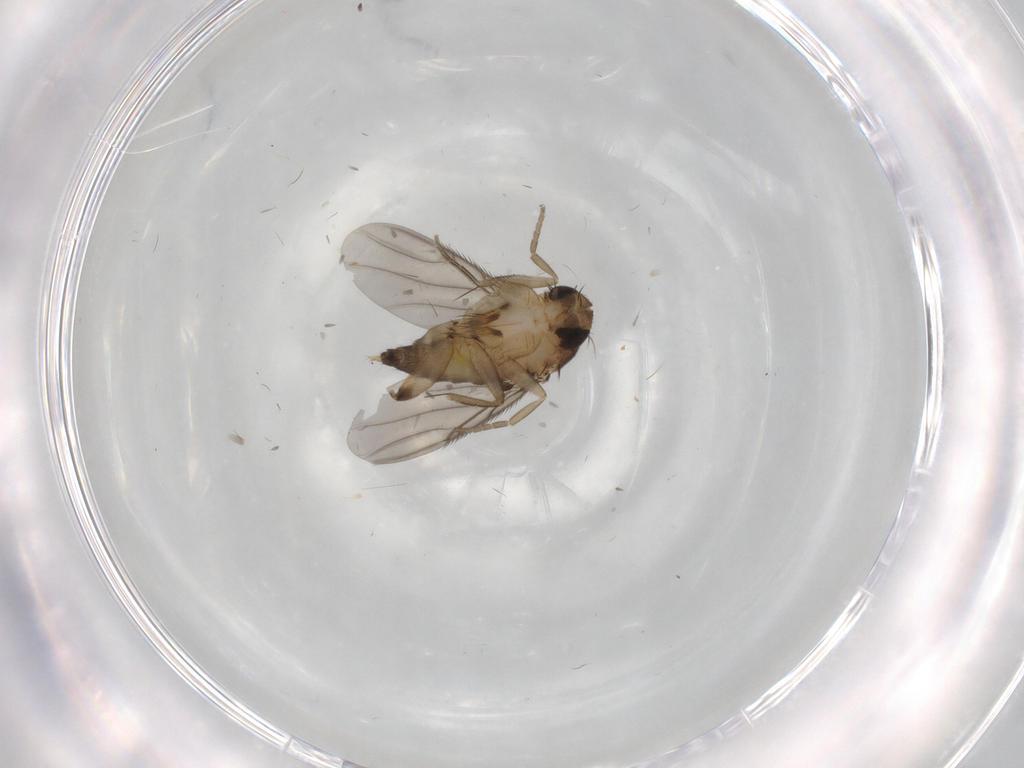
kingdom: Animalia
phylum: Arthropoda
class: Insecta
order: Diptera
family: Phoridae
